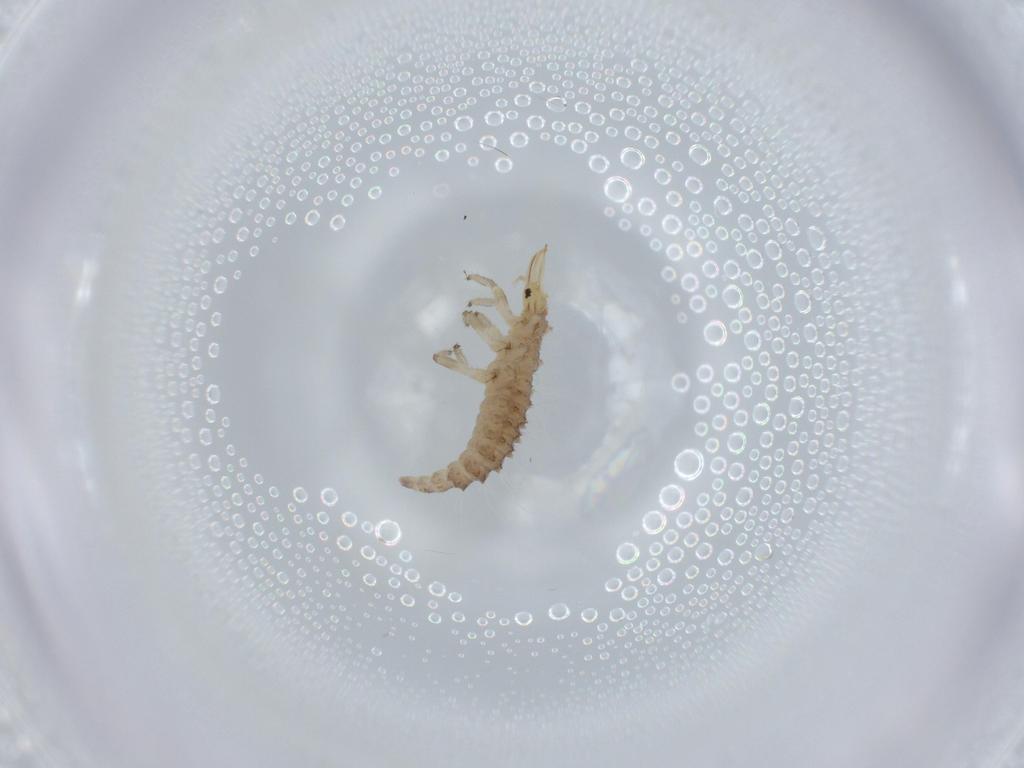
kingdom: Animalia
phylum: Arthropoda
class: Insecta
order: Neuroptera
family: Chrysopidae
